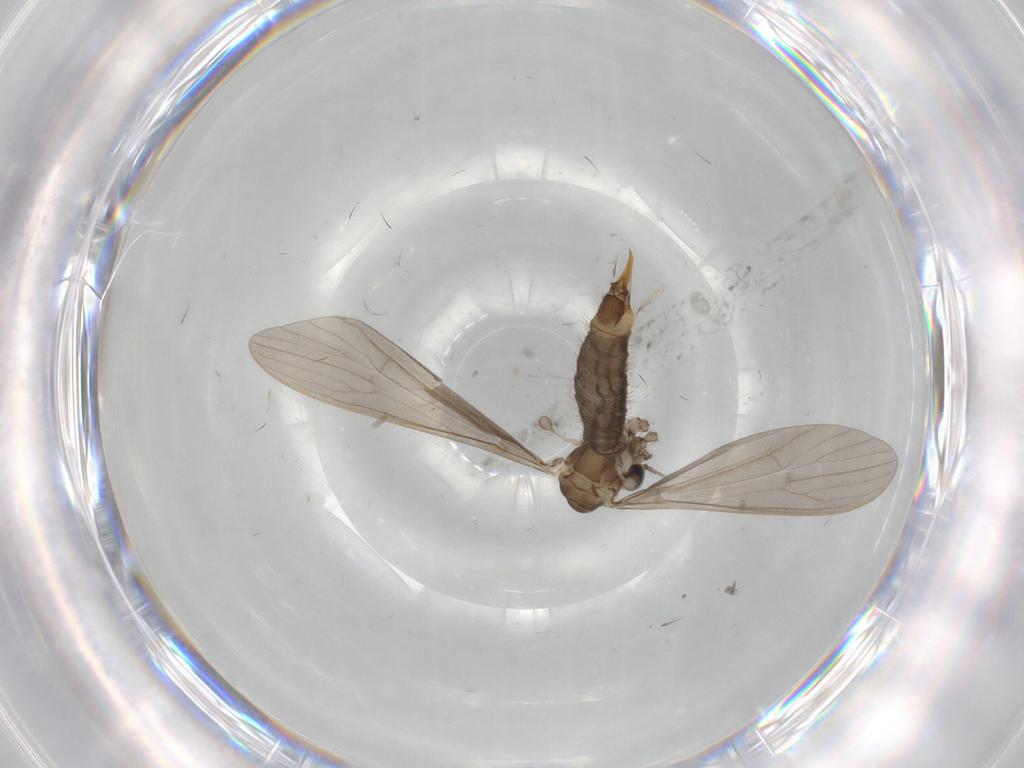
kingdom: Animalia
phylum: Arthropoda
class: Insecta
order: Diptera
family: Limoniidae
